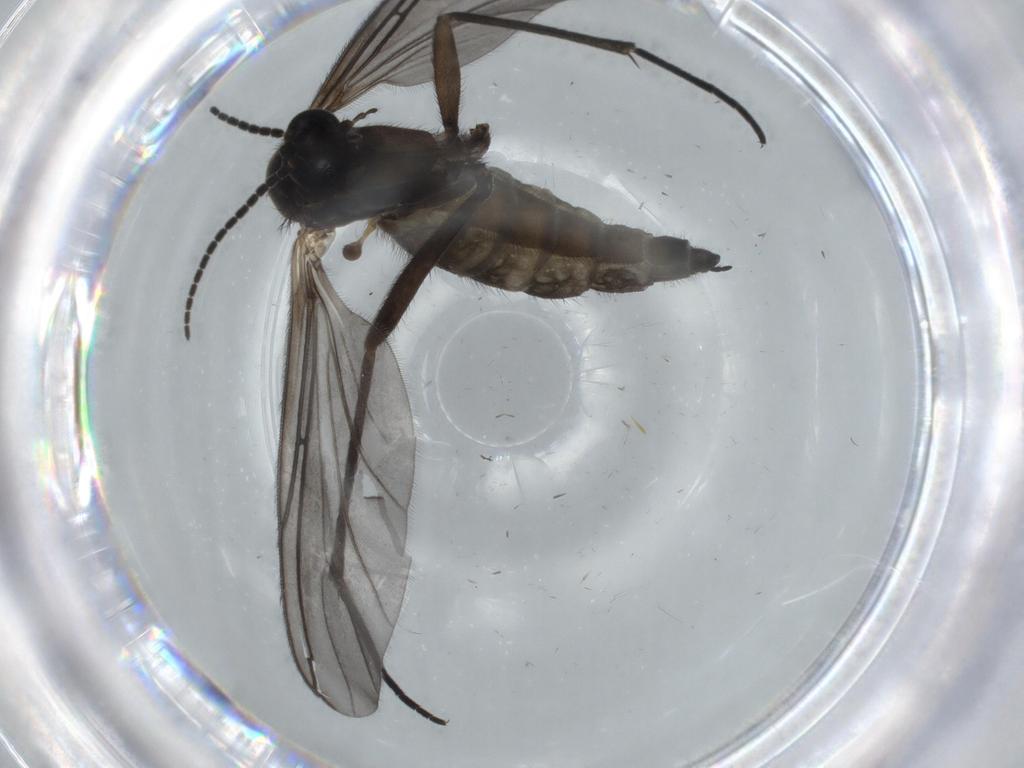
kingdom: Animalia
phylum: Arthropoda
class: Insecta
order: Diptera
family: Sciaridae
